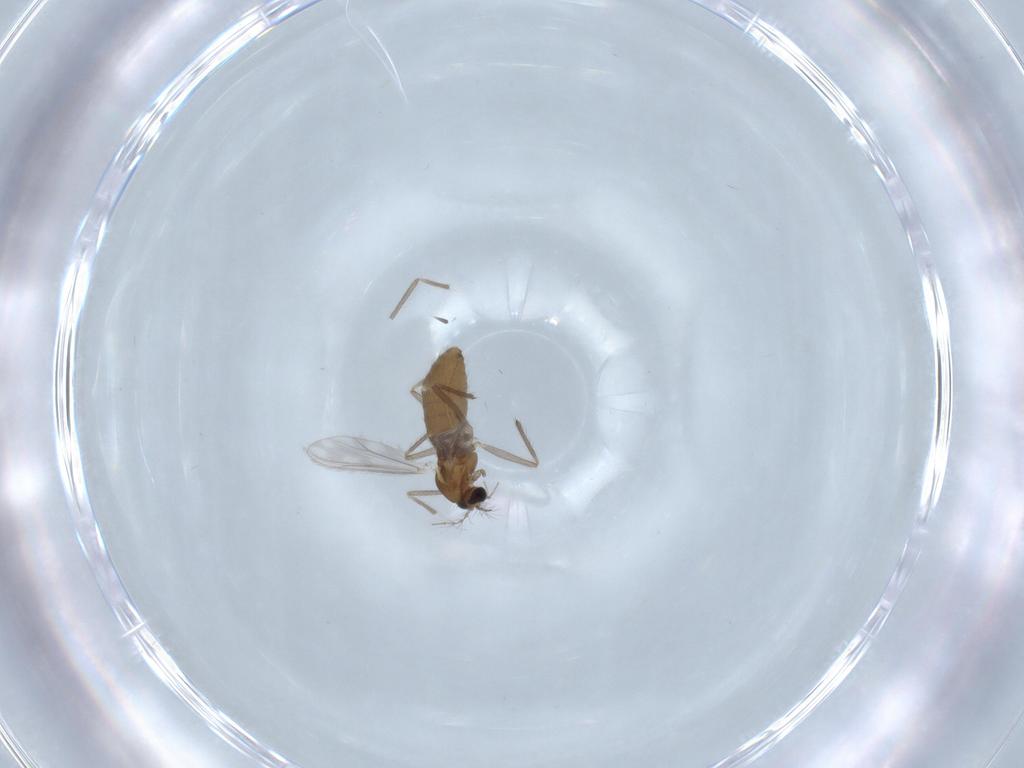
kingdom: Animalia
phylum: Arthropoda
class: Insecta
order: Diptera
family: Chironomidae
